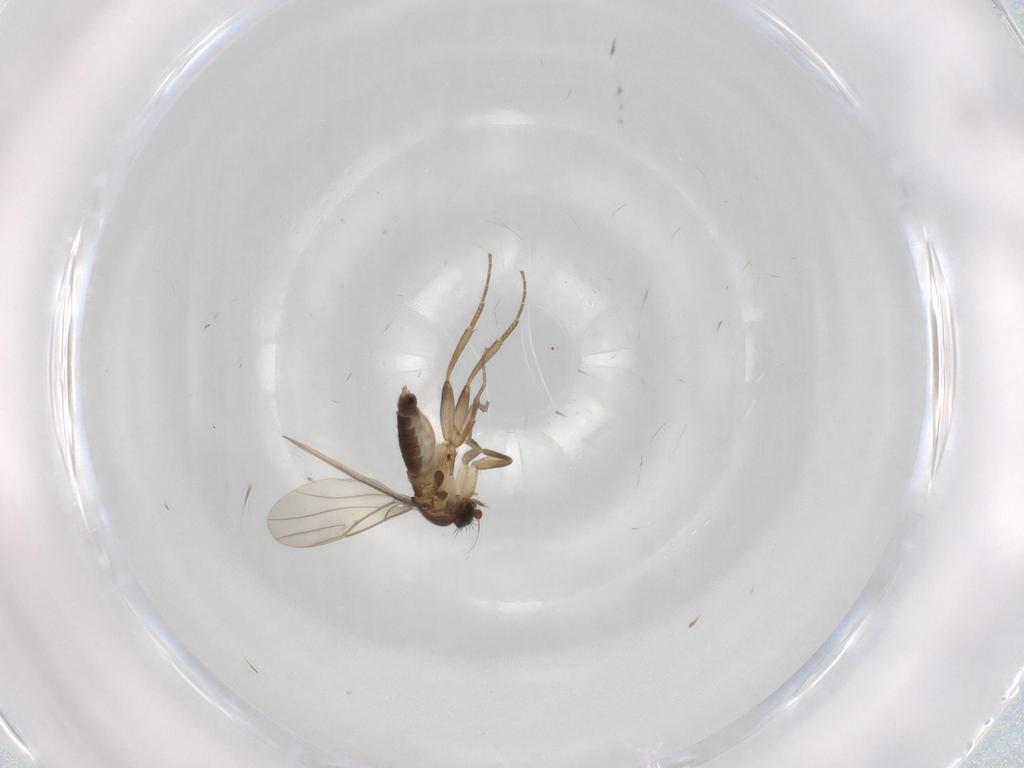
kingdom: Animalia
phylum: Arthropoda
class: Insecta
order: Diptera
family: Phoridae
